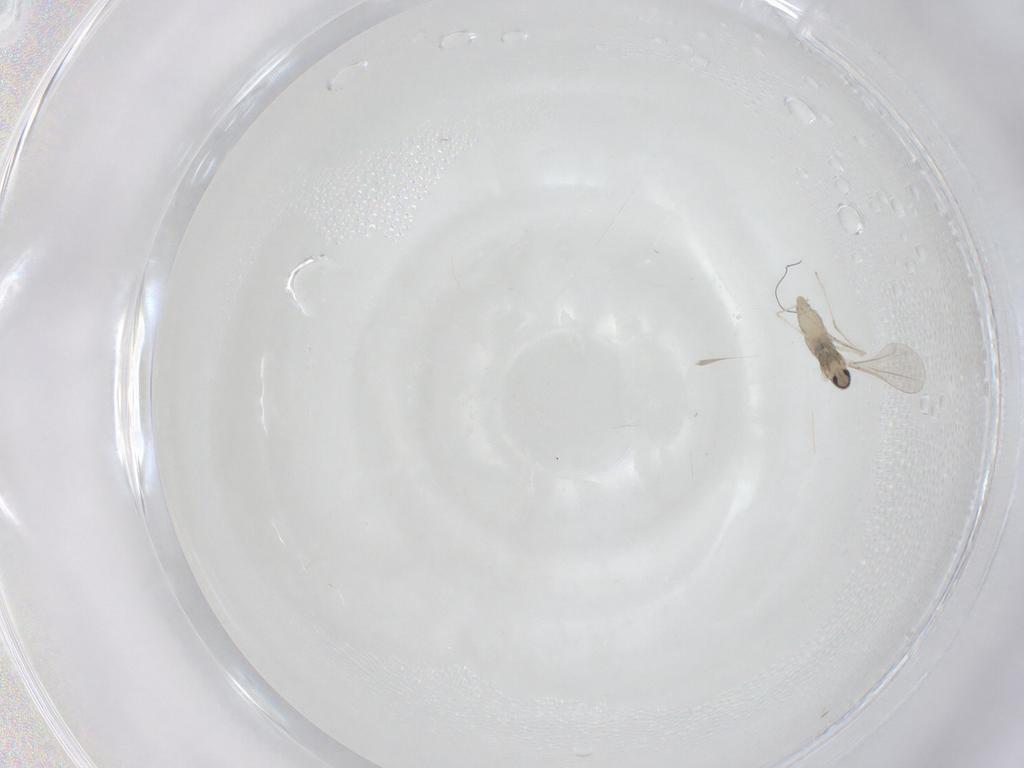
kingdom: Animalia
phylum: Arthropoda
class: Insecta
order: Diptera
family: Cecidomyiidae
